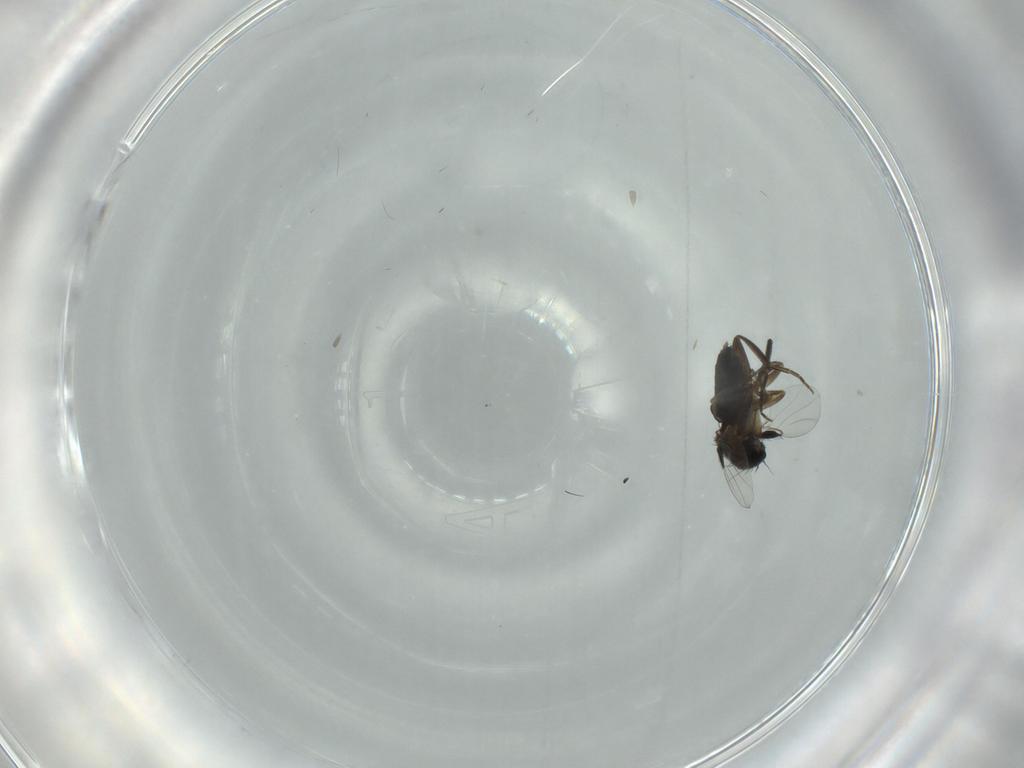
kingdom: Animalia
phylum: Arthropoda
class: Insecta
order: Diptera
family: Phoridae
